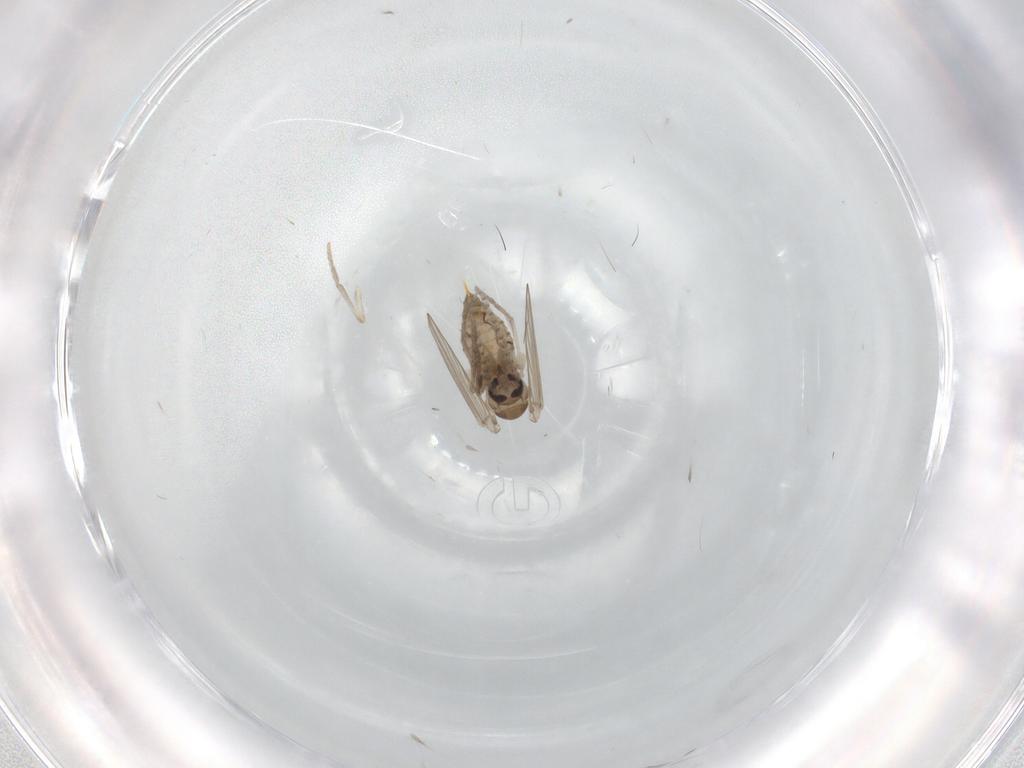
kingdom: Animalia
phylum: Arthropoda
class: Insecta
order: Diptera
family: Psychodidae
